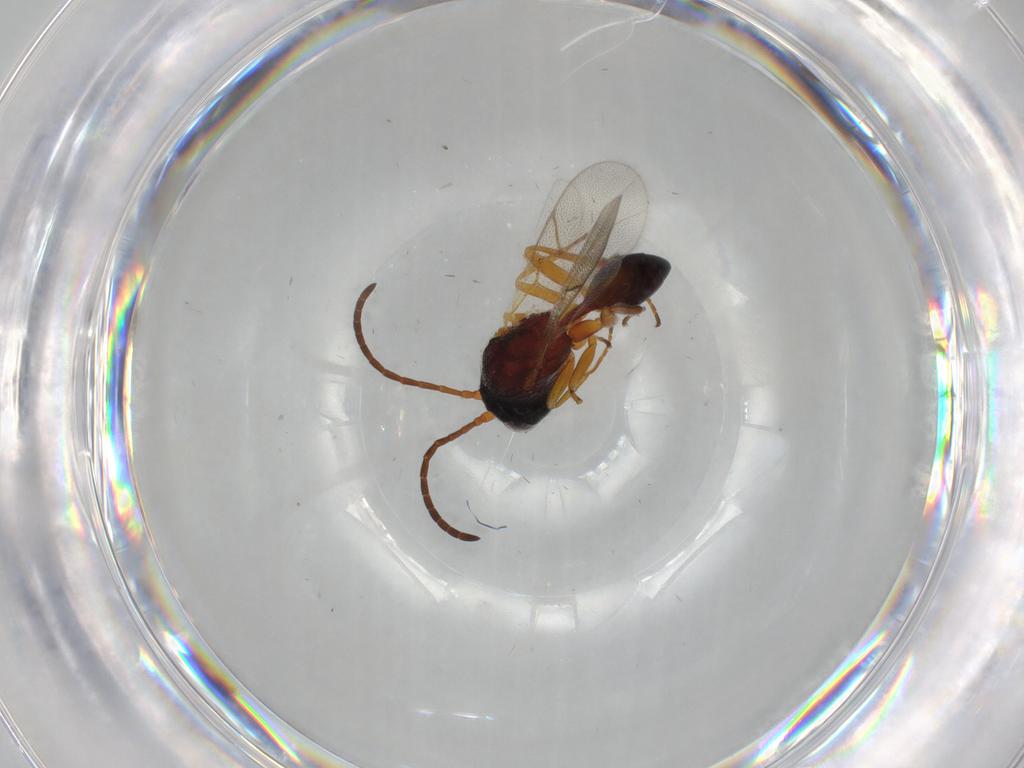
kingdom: Animalia
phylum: Arthropoda
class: Insecta
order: Hymenoptera
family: Figitidae
